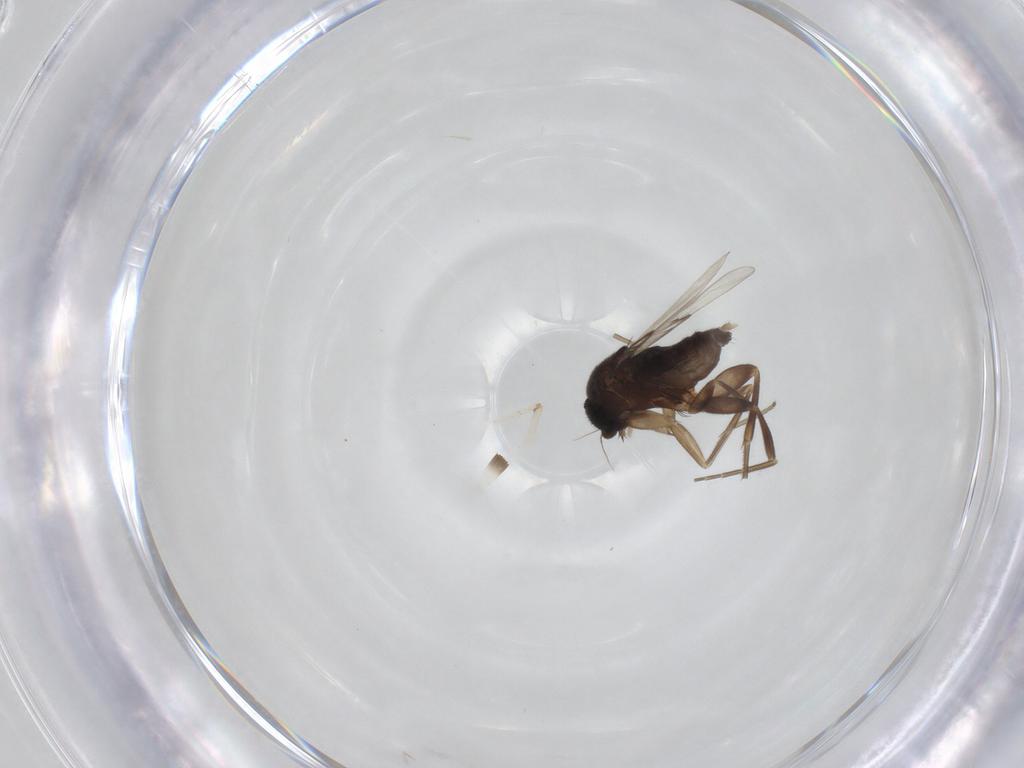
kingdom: Animalia
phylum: Arthropoda
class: Insecta
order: Diptera
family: Phoridae
